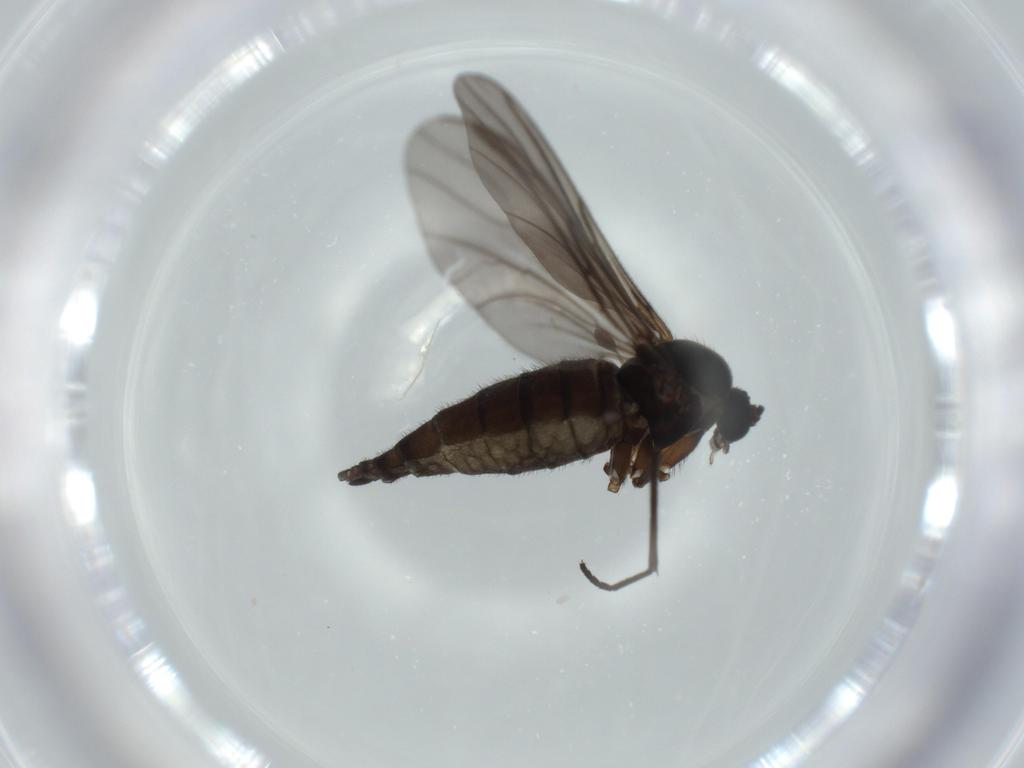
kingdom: Animalia
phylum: Arthropoda
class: Insecta
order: Diptera
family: Sciaridae
